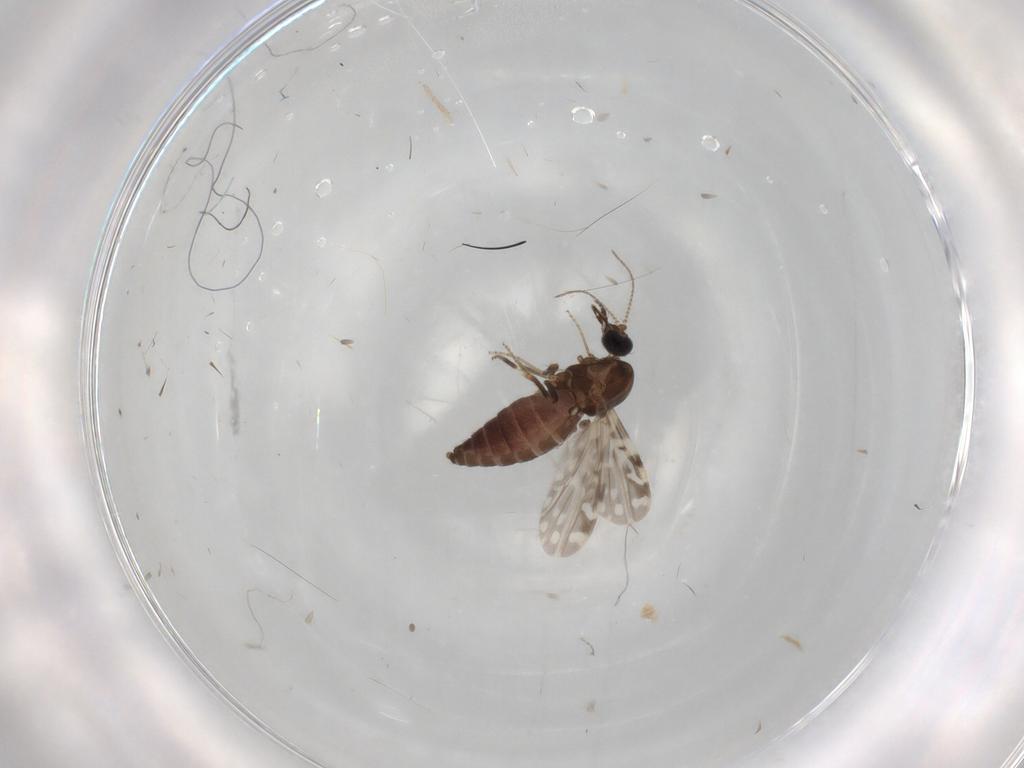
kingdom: Animalia
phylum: Arthropoda
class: Insecta
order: Diptera
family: Ceratopogonidae
